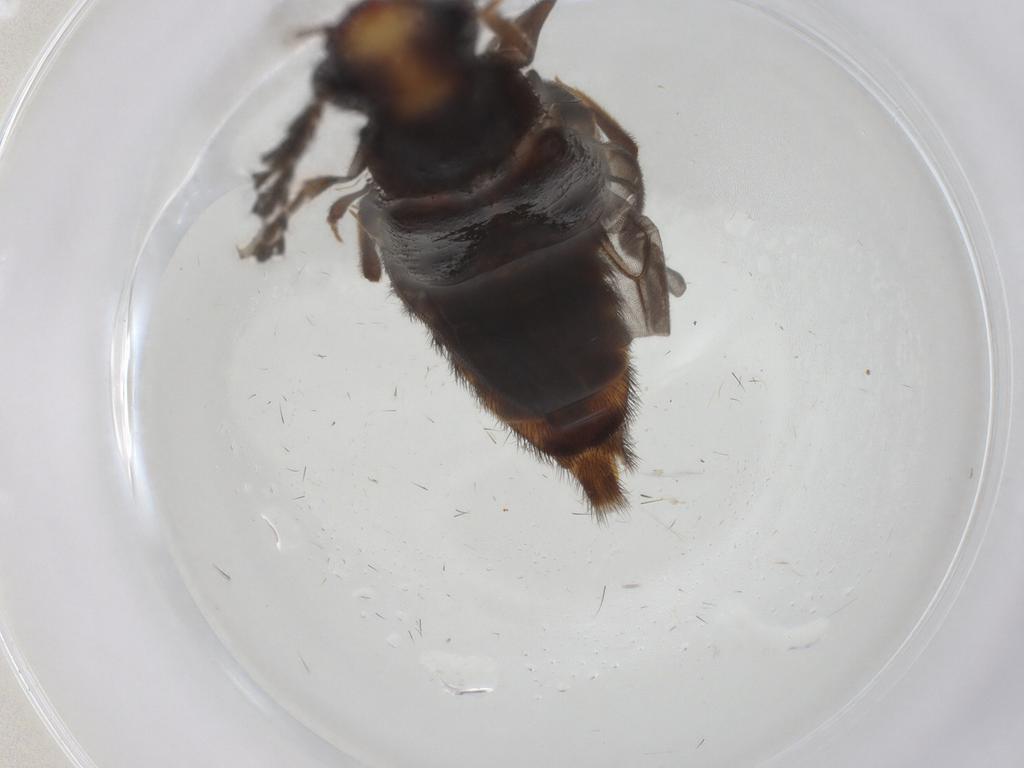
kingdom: Animalia
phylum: Arthropoda
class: Insecta
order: Coleoptera
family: Phengodidae
